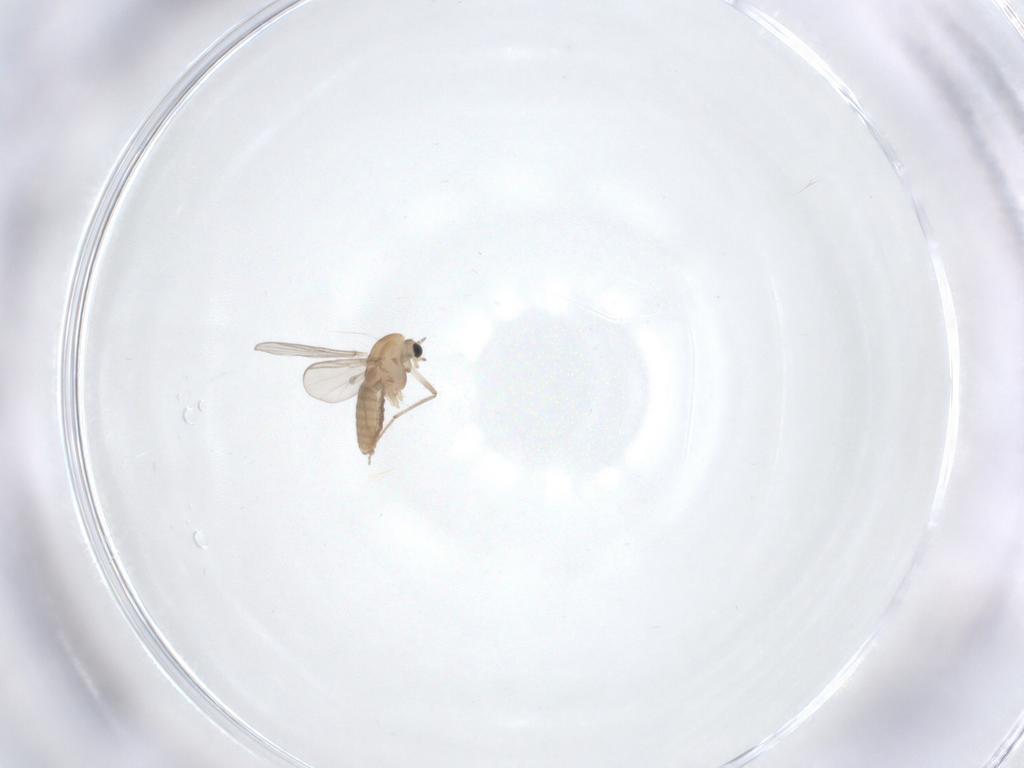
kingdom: Animalia
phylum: Arthropoda
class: Insecta
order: Diptera
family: Chironomidae
